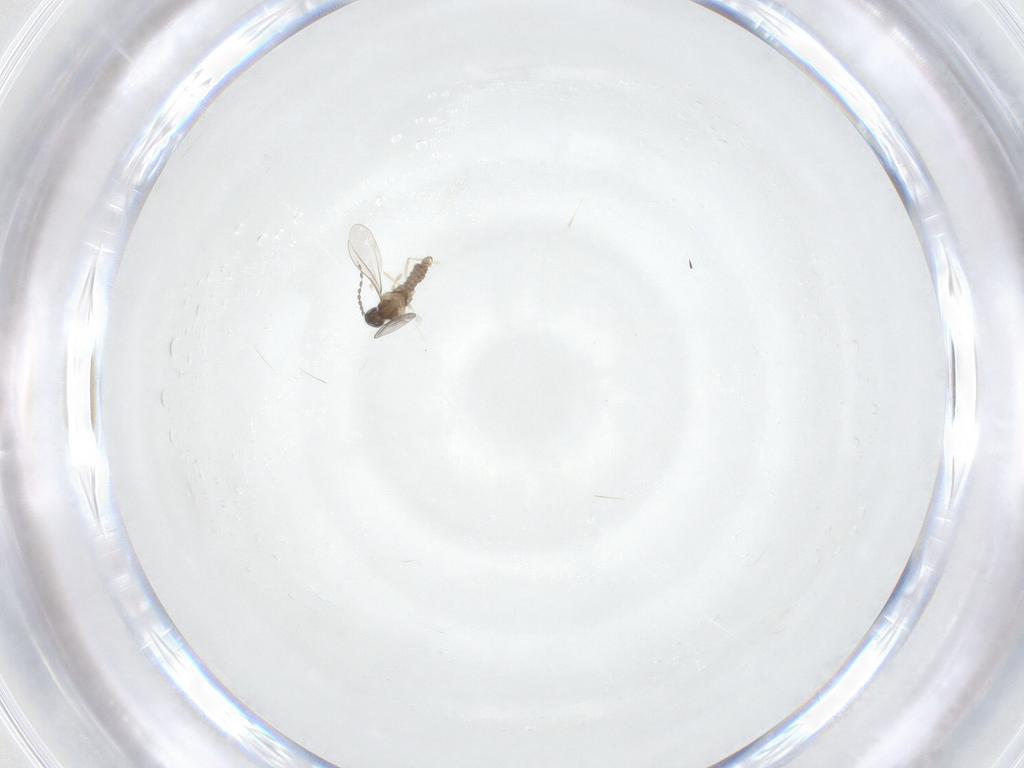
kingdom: Animalia
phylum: Arthropoda
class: Insecta
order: Diptera
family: Cecidomyiidae
